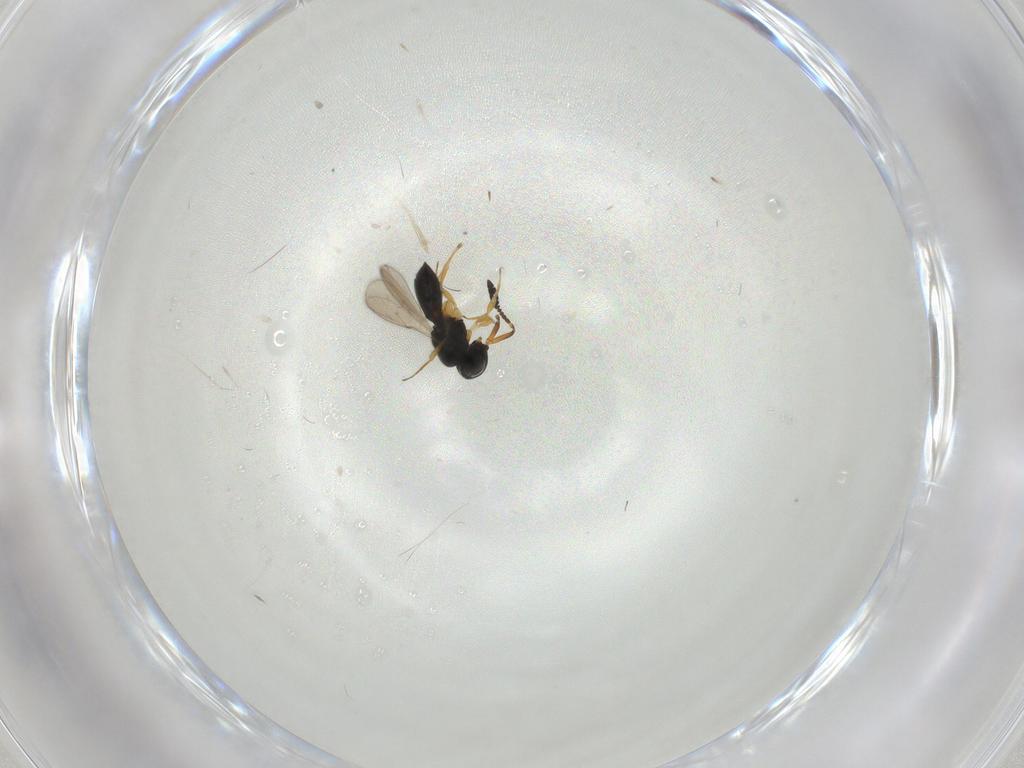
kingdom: Animalia
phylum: Arthropoda
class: Insecta
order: Hymenoptera
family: Scelionidae
